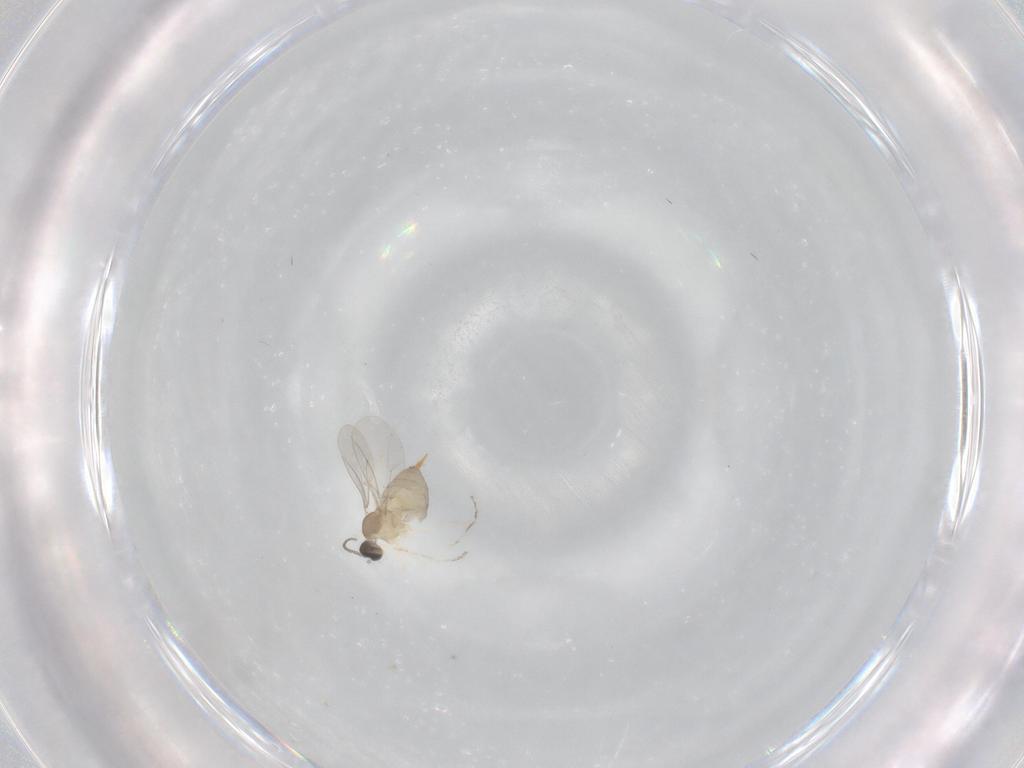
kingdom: Animalia
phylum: Arthropoda
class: Insecta
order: Diptera
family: Cecidomyiidae
